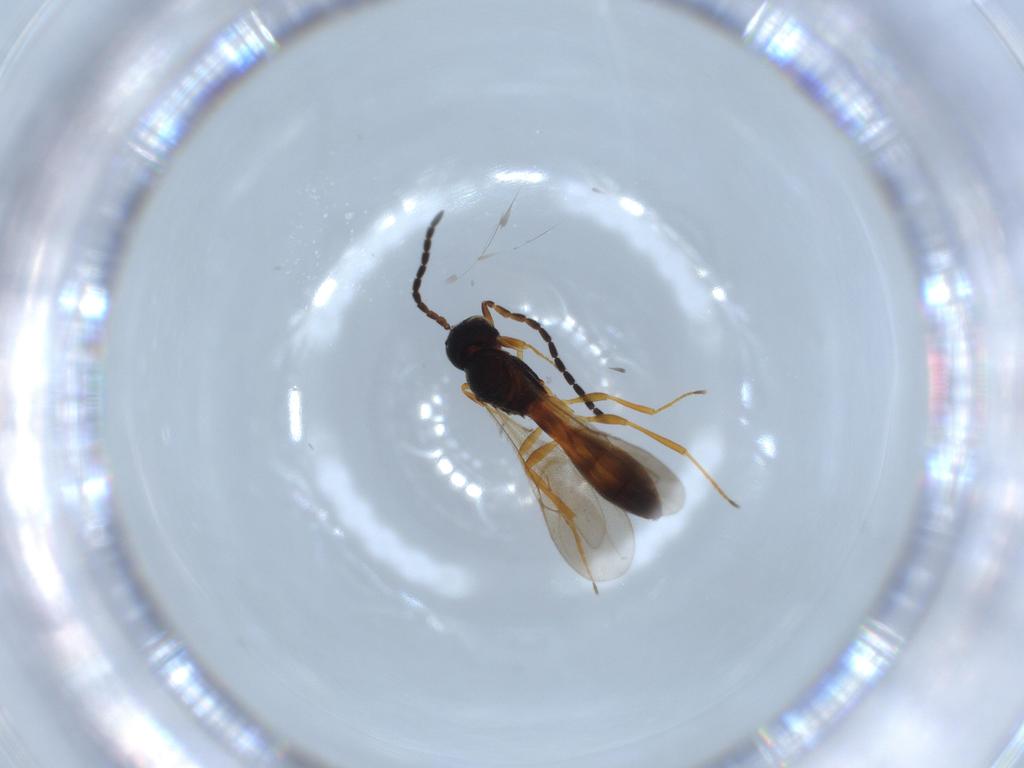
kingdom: Animalia
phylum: Arthropoda
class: Insecta
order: Hymenoptera
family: Scelionidae
